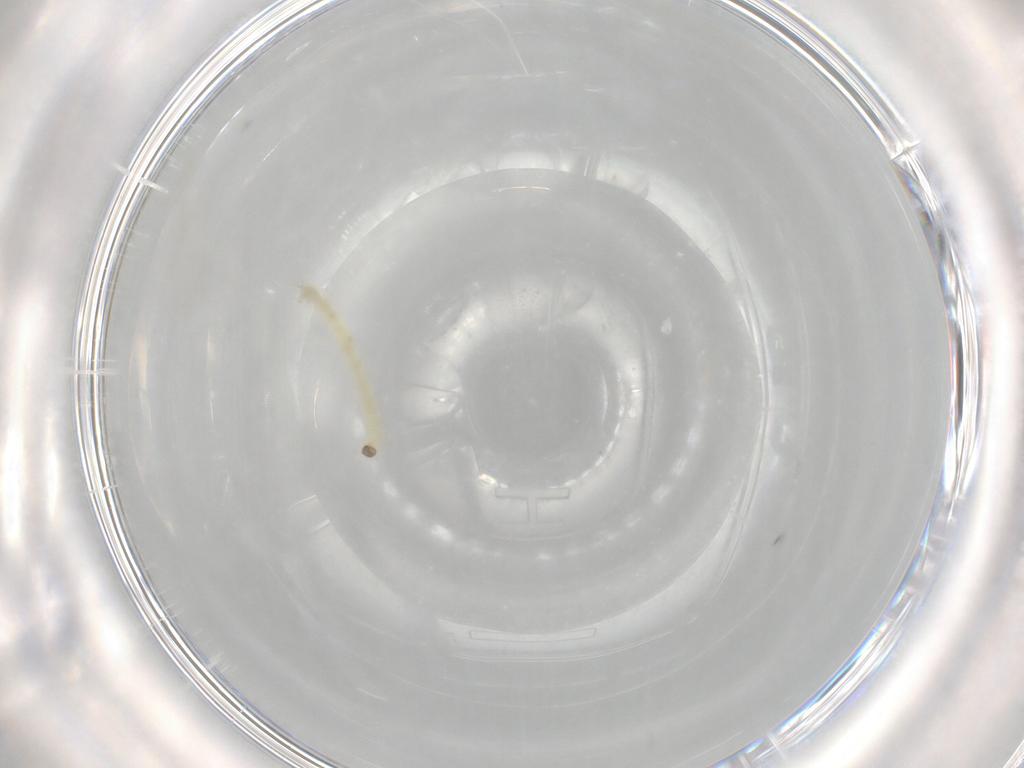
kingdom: Animalia
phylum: Arthropoda
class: Insecta
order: Diptera
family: Chironomidae
